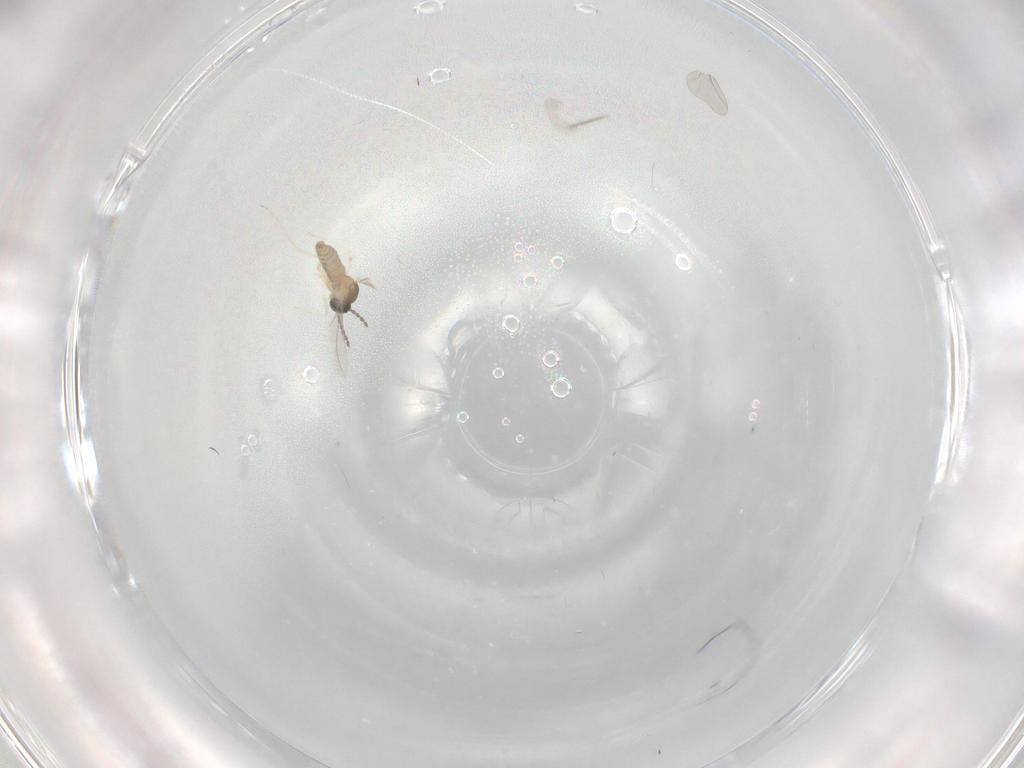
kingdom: Animalia
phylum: Arthropoda
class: Insecta
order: Diptera
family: Cecidomyiidae
